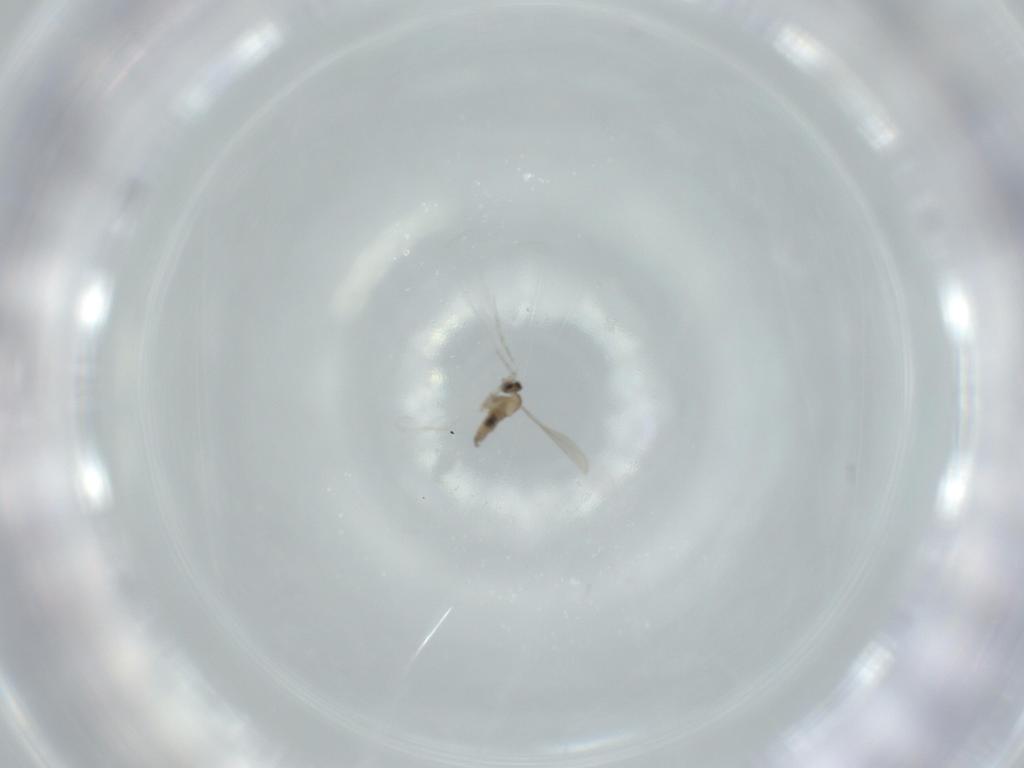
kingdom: Animalia
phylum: Arthropoda
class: Insecta
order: Diptera
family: Cecidomyiidae
